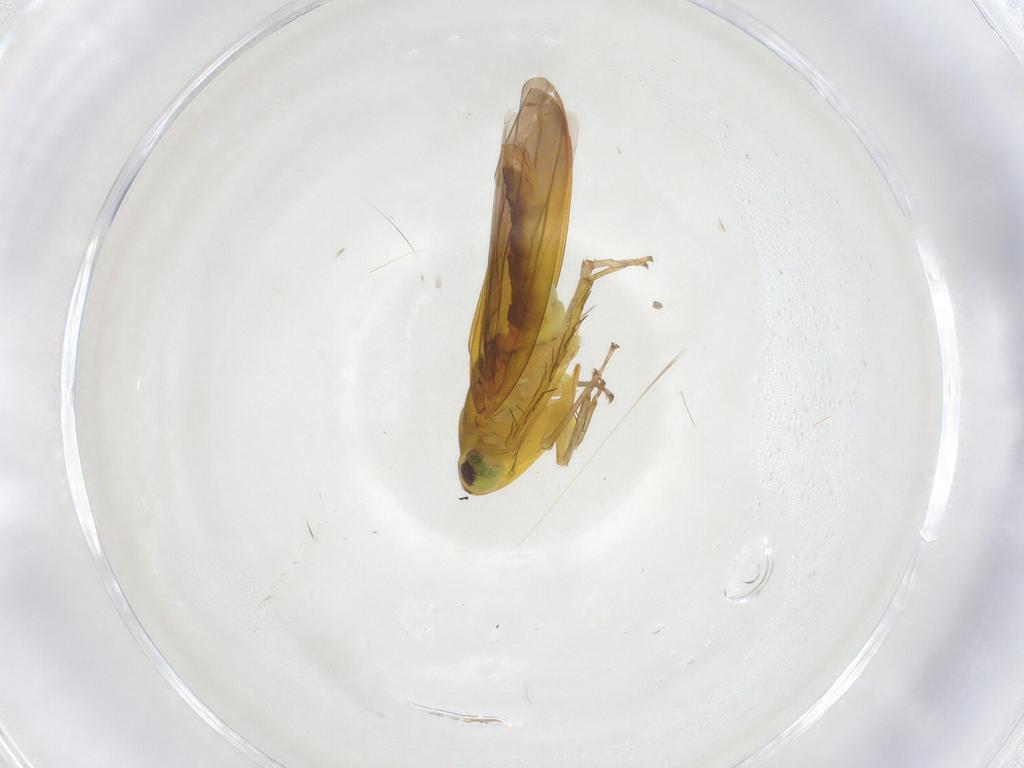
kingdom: Animalia
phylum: Arthropoda
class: Insecta
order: Hemiptera
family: Cicadellidae
